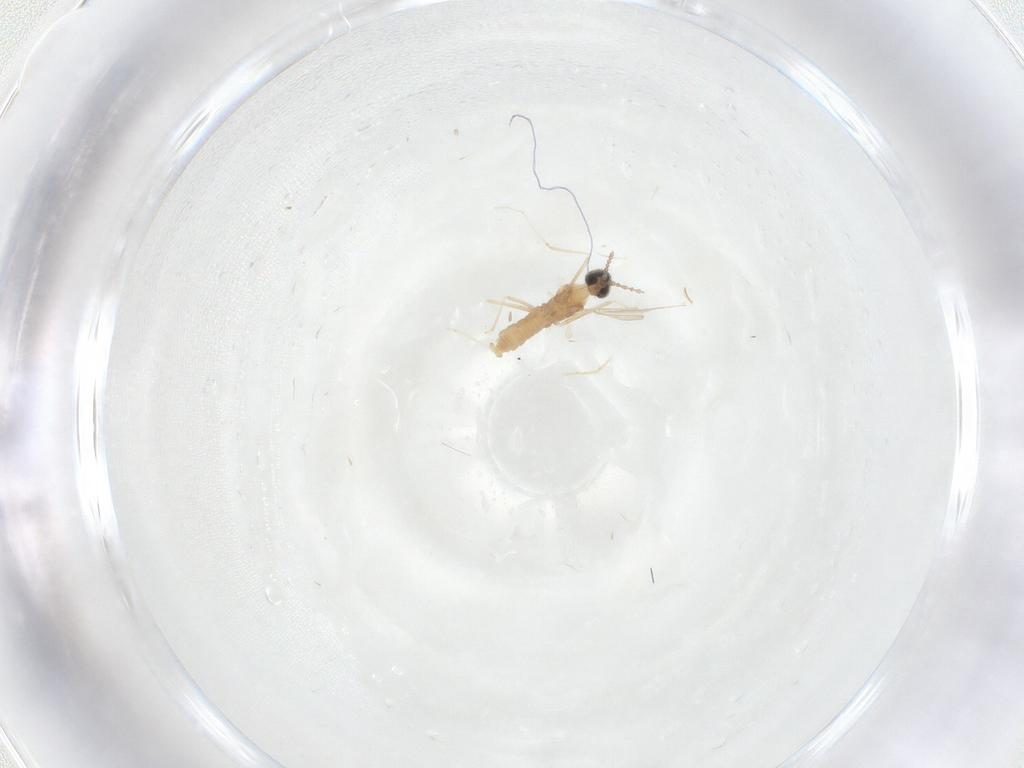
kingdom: Animalia
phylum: Arthropoda
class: Insecta
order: Diptera
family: Cecidomyiidae
